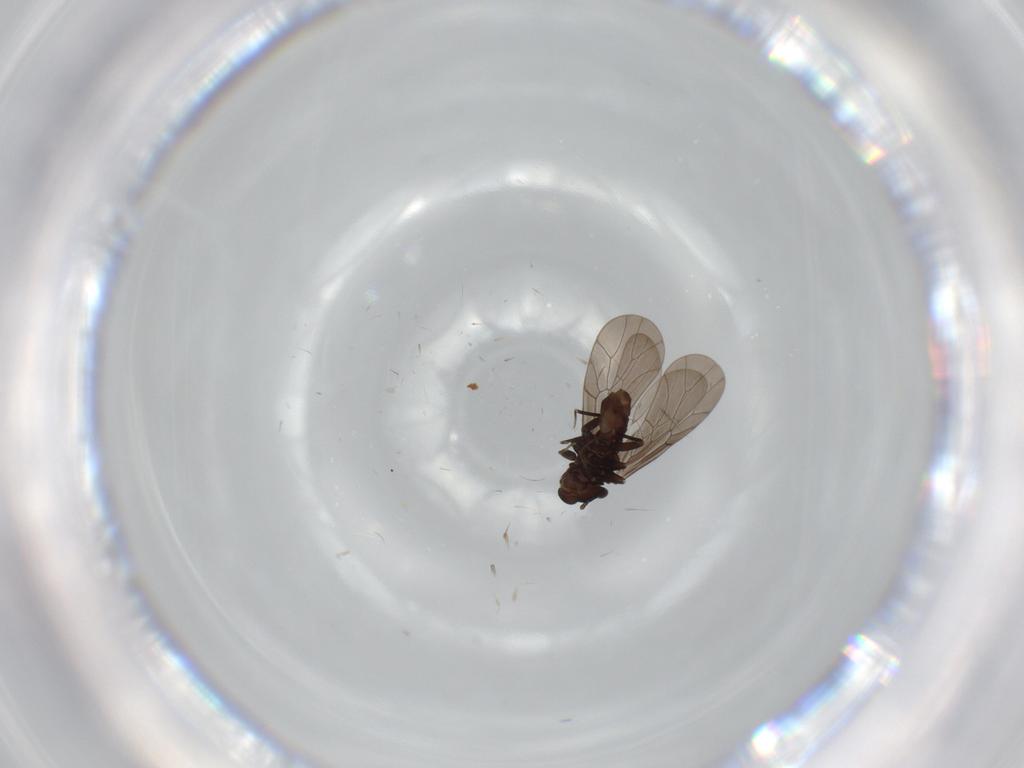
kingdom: Animalia
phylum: Arthropoda
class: Insecta
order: Psocodea
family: Lepidopsocidae
